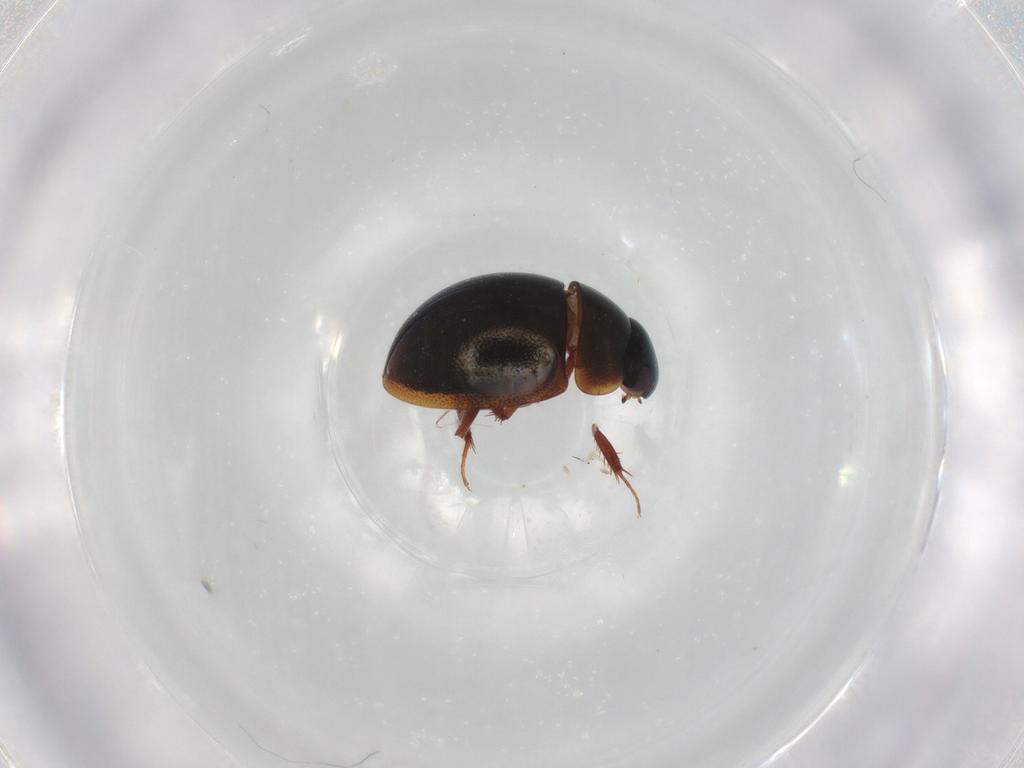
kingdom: Animalia
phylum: Arthropoda
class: Insecta
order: Coleoptera
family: Hydrophilidae
